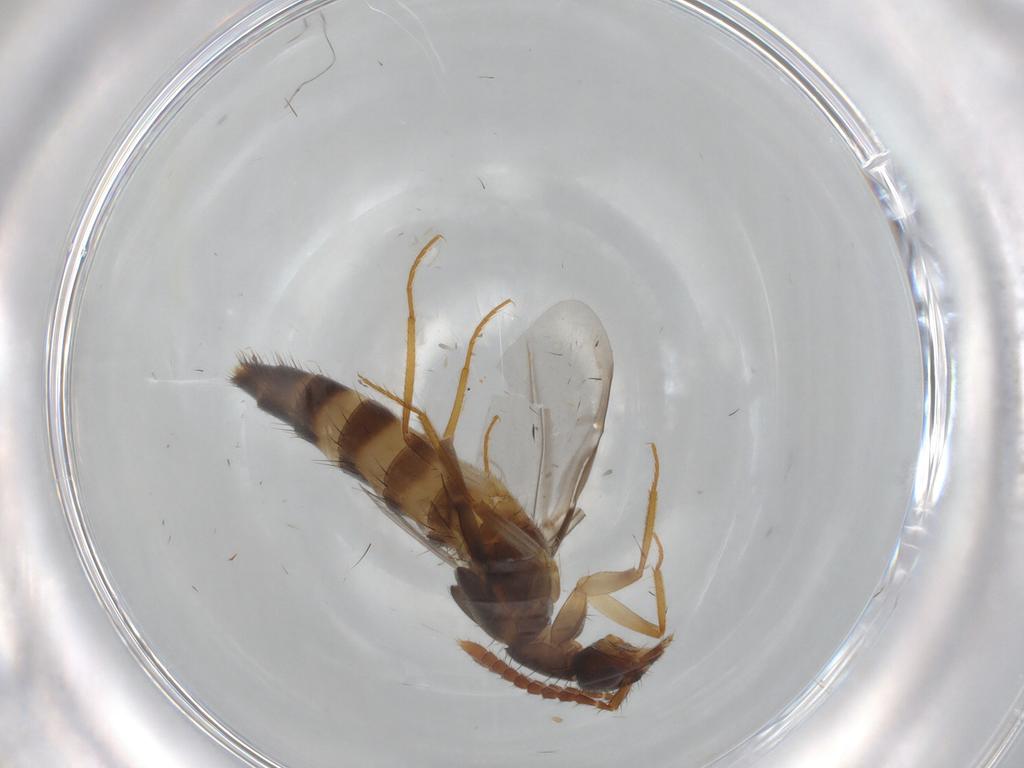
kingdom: Animalia
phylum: Arthropoda
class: Insecta
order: Coleoptera
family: Staphylinidae
